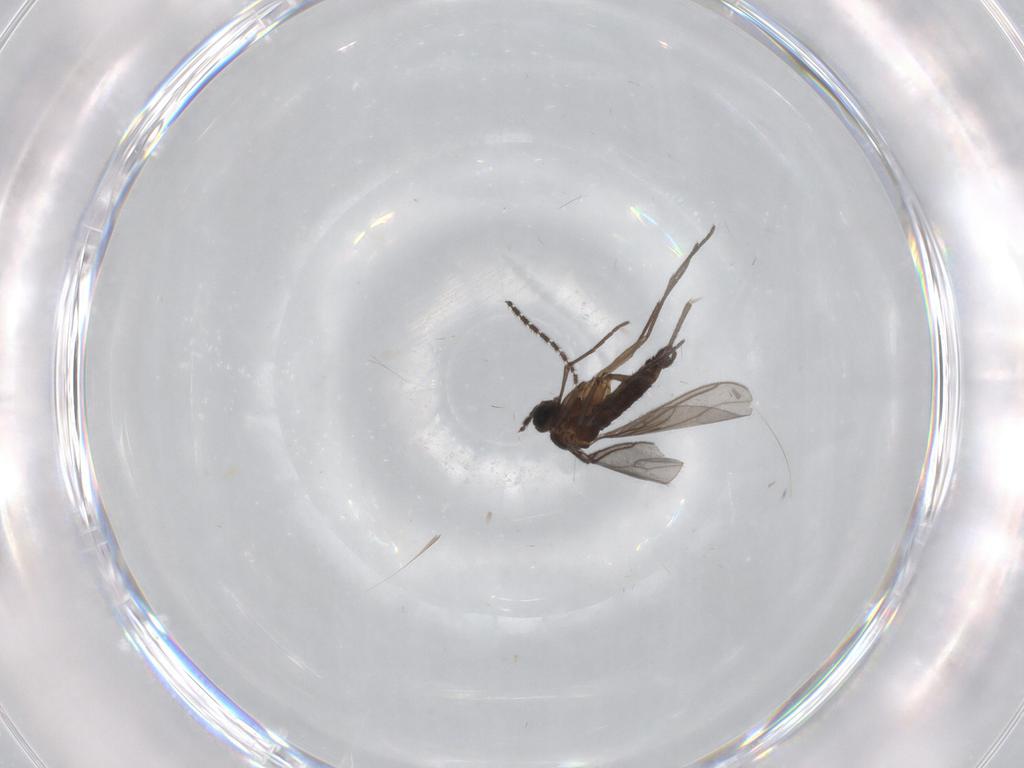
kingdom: Animalia
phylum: Arthropoda
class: Insecta
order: Diptera
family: Sciaridae
